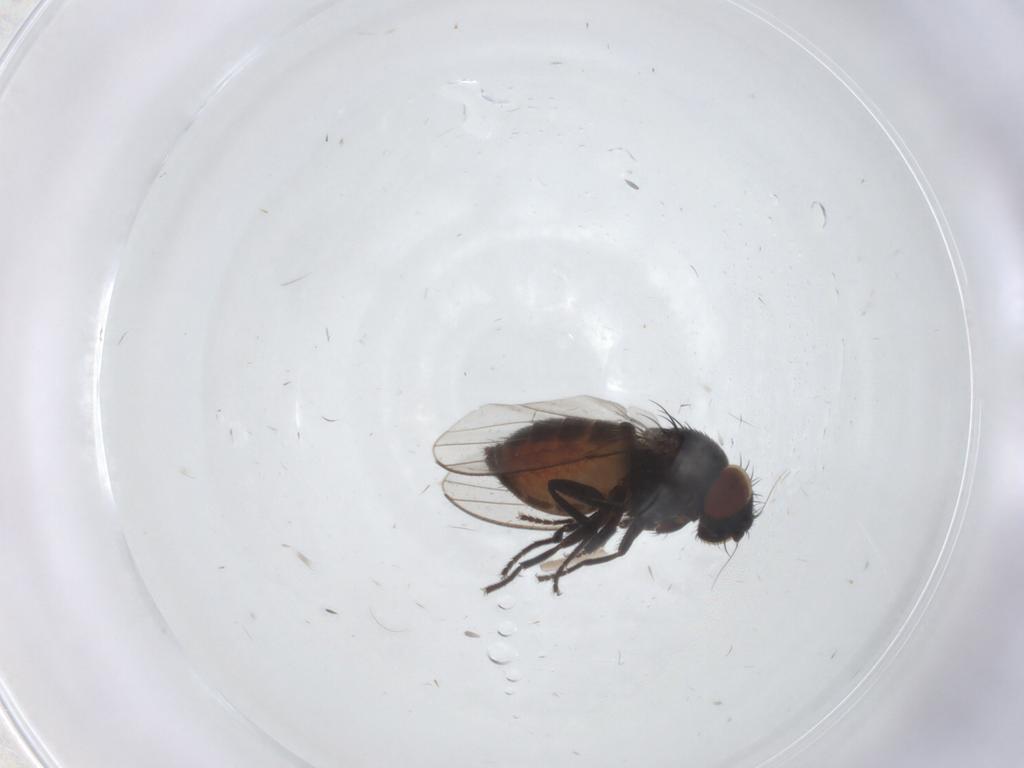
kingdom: Animalia
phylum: Arthropoda
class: Insecta
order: Diptera
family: Milichiidae
